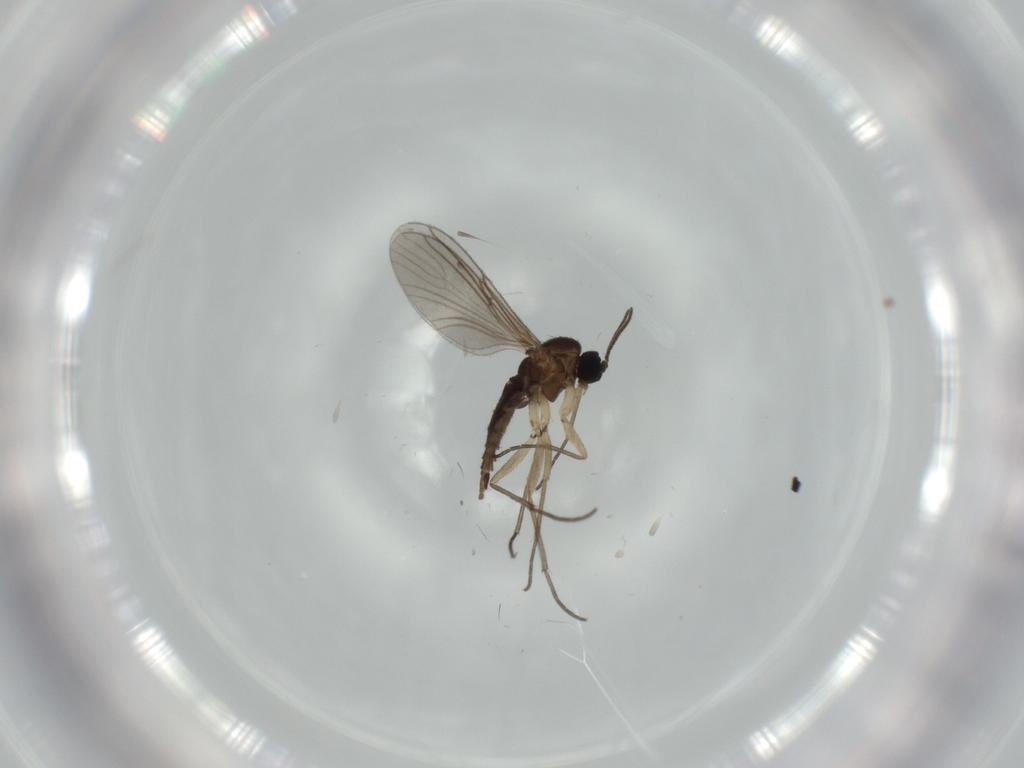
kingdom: Animalia
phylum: Arthropoda
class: Insecta
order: Diptera
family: Sciaridae
